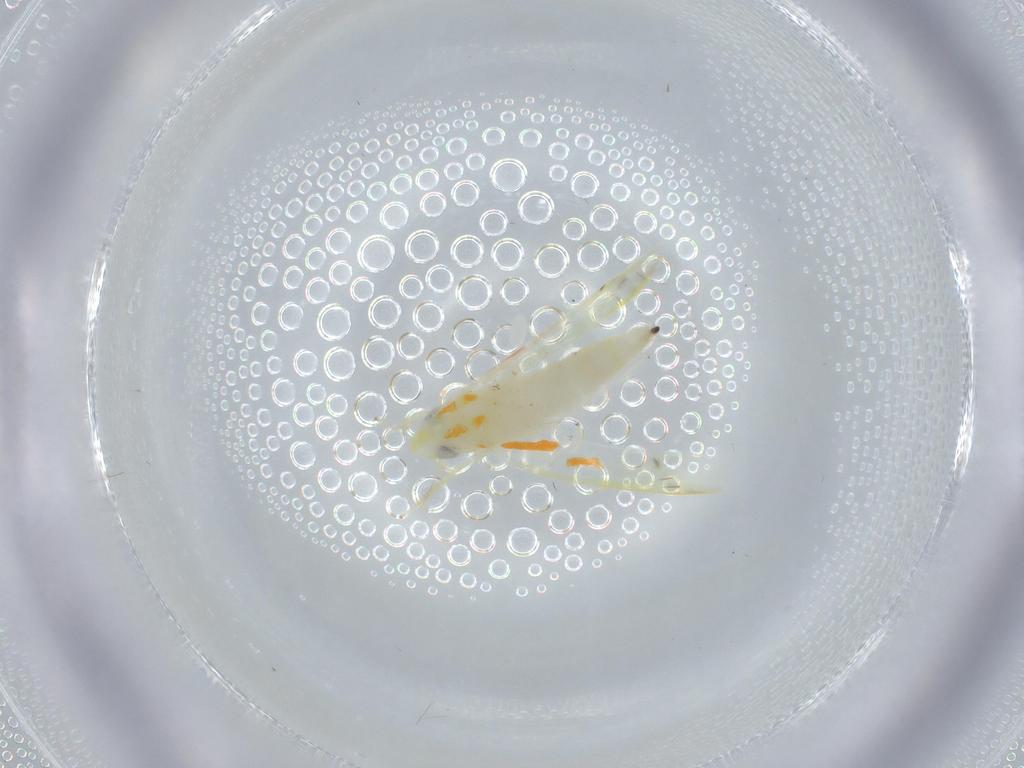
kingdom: Animalia
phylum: Arthropoda
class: Insecta
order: Hemiptera
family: Cicadellidae
